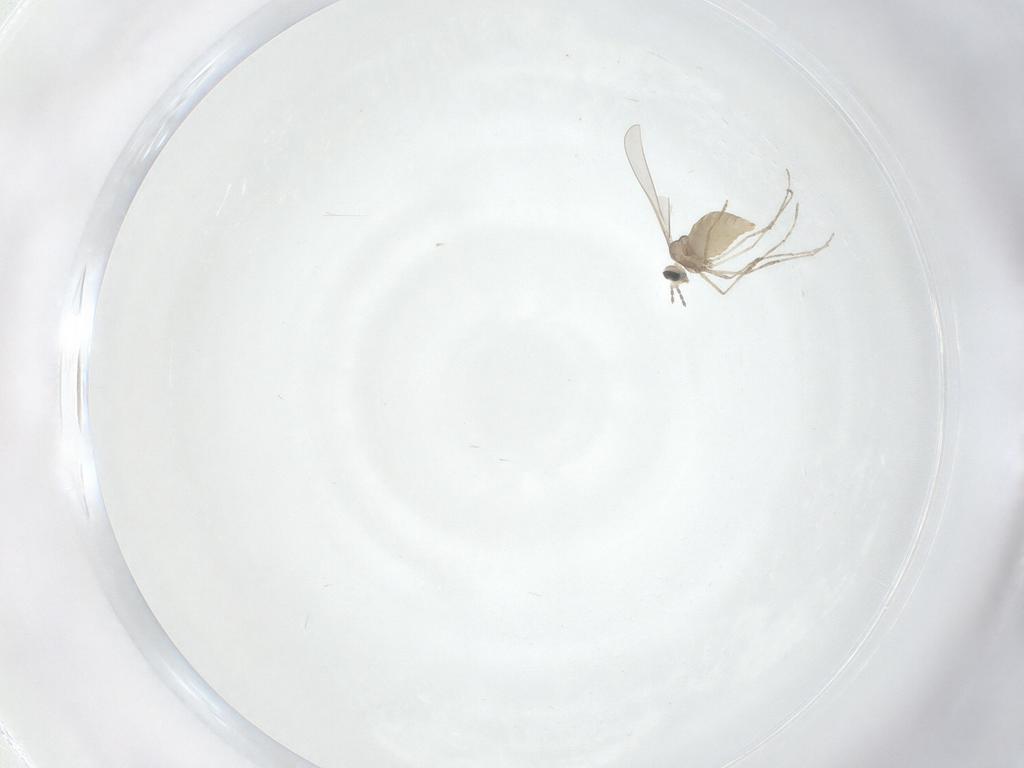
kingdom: Animalia
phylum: Arthropoda
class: Insecta
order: Diptera
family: Cecidomyiidae
